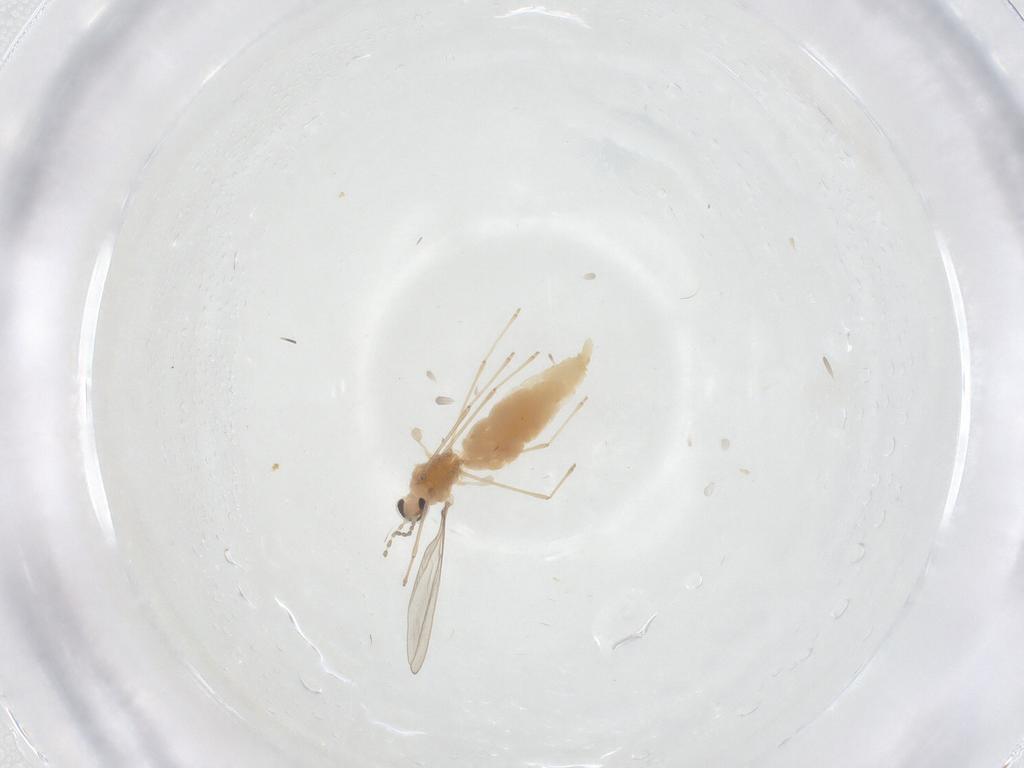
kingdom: Animalia
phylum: Arthropoda
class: Insecta
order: Diptera
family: Cecidomyiidae
